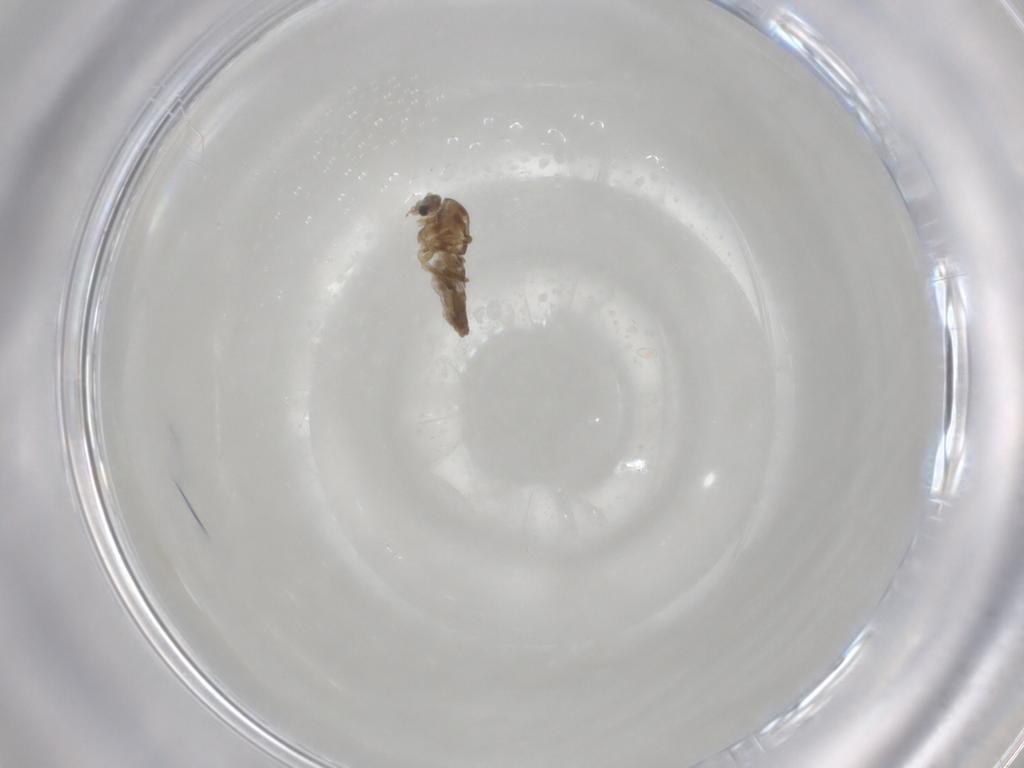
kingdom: Animalia
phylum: Arthropoda
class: Insecta
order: Diptera
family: Chironomidae
